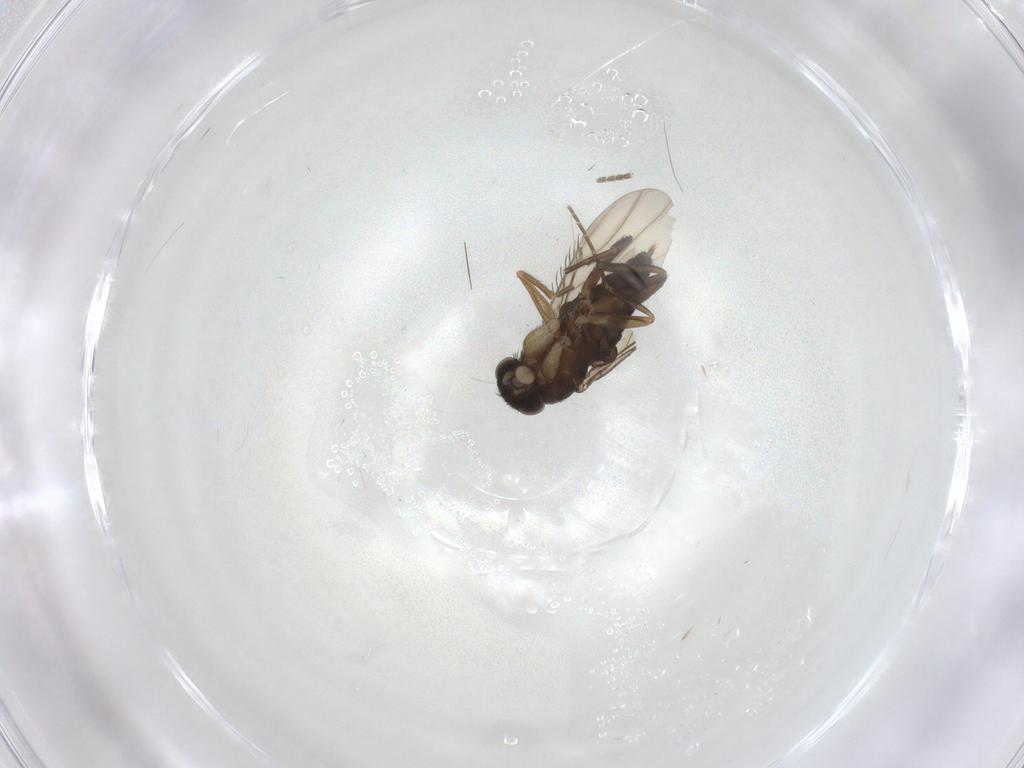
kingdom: Animalia
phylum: Arthropoda
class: Insecta
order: Diptera
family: Phoridae
